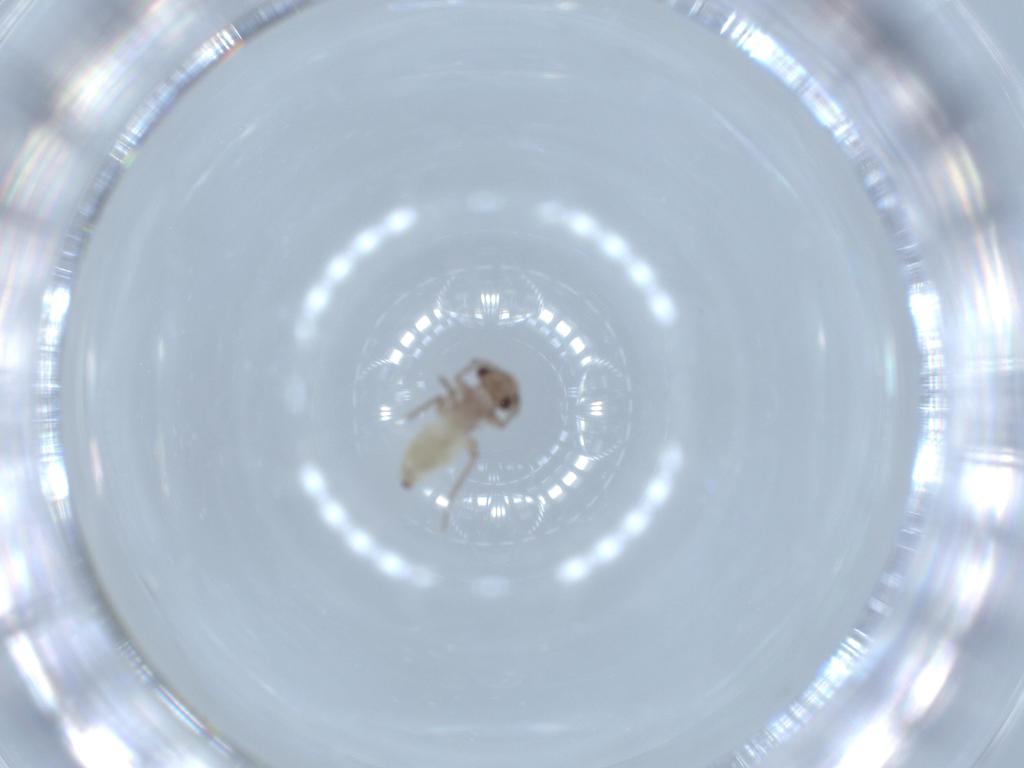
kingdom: Animalia
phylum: Arthropoda
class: Insecta
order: Psocodea
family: Lepidopsocidae
